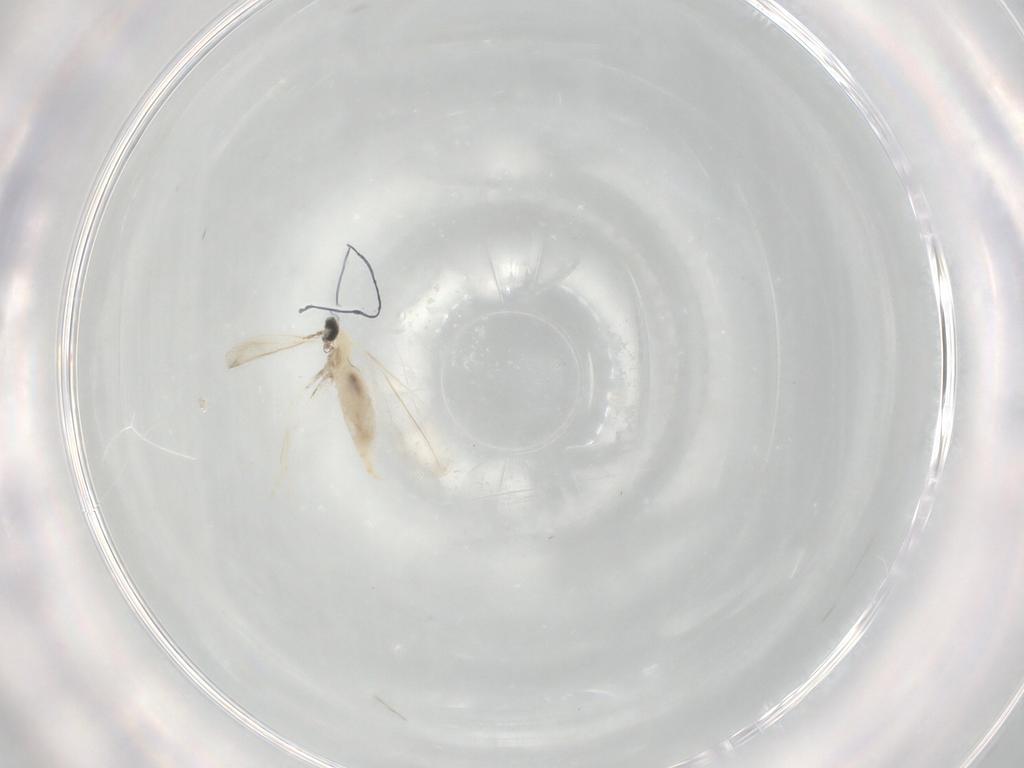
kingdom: Animalia
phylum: Arthropoda
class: Insecta
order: Diptera
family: Cecidomyiidae
